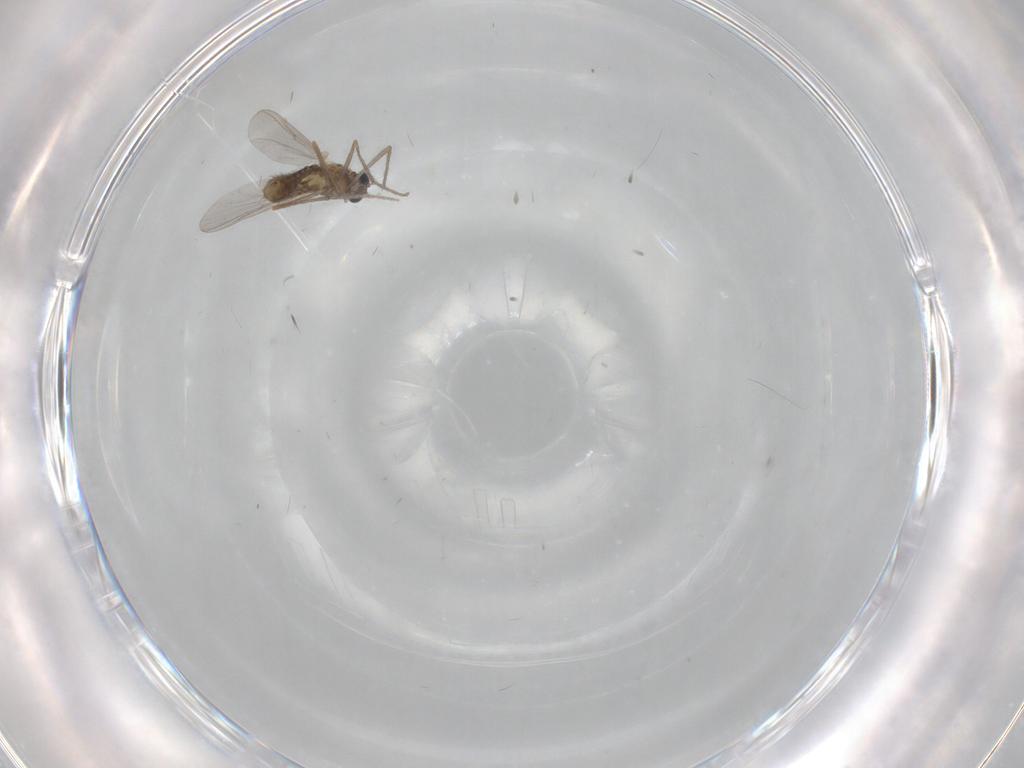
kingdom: Animalia
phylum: Arthropoda
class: Insecta
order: Diptera
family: Chironomidae
